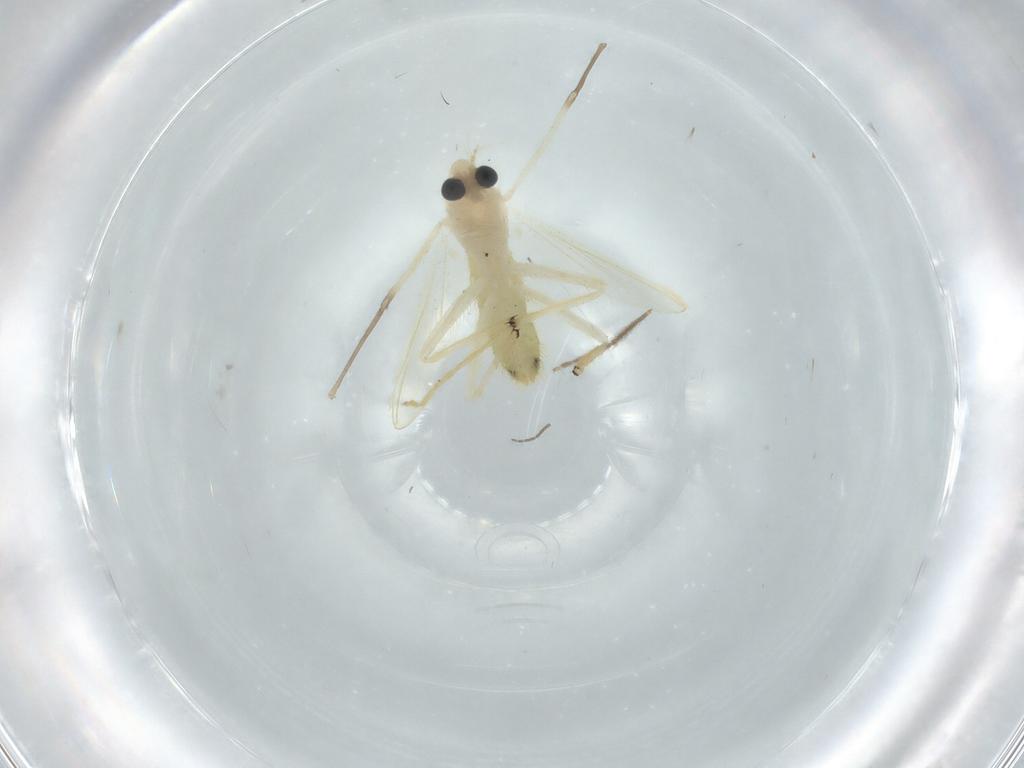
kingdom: Animalia
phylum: Arthropoda
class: Insecta
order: Diptera
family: Chironomidae
